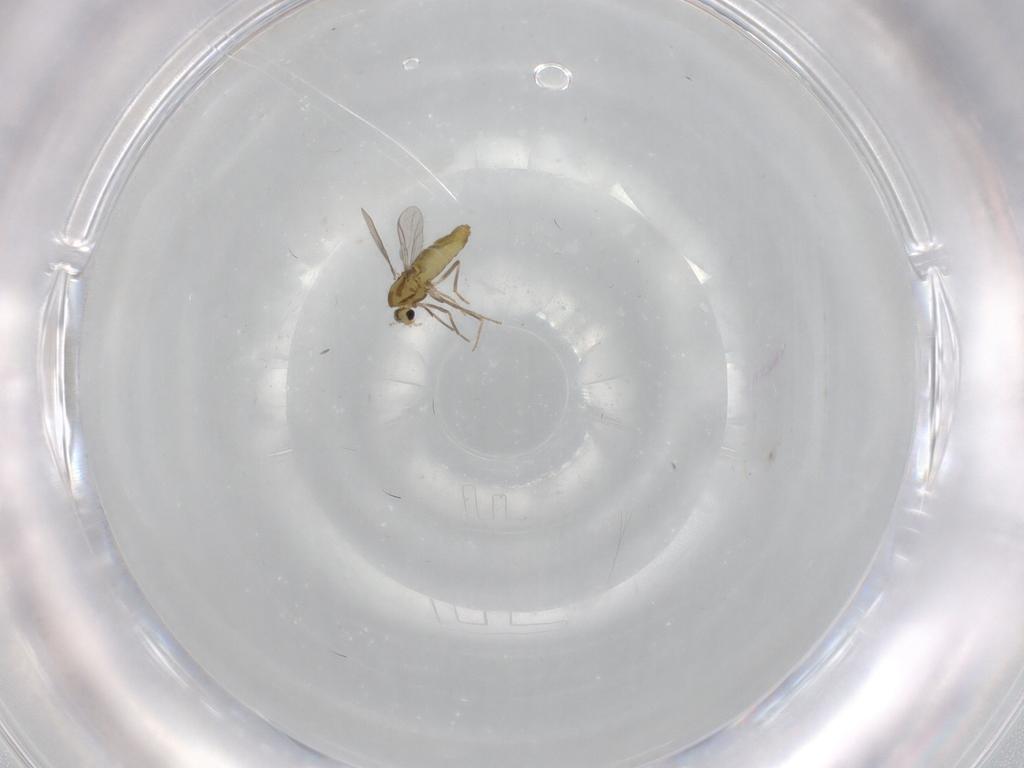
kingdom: Animalia
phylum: Arthropoda
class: Insecta
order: Diptera
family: Chironomidae
